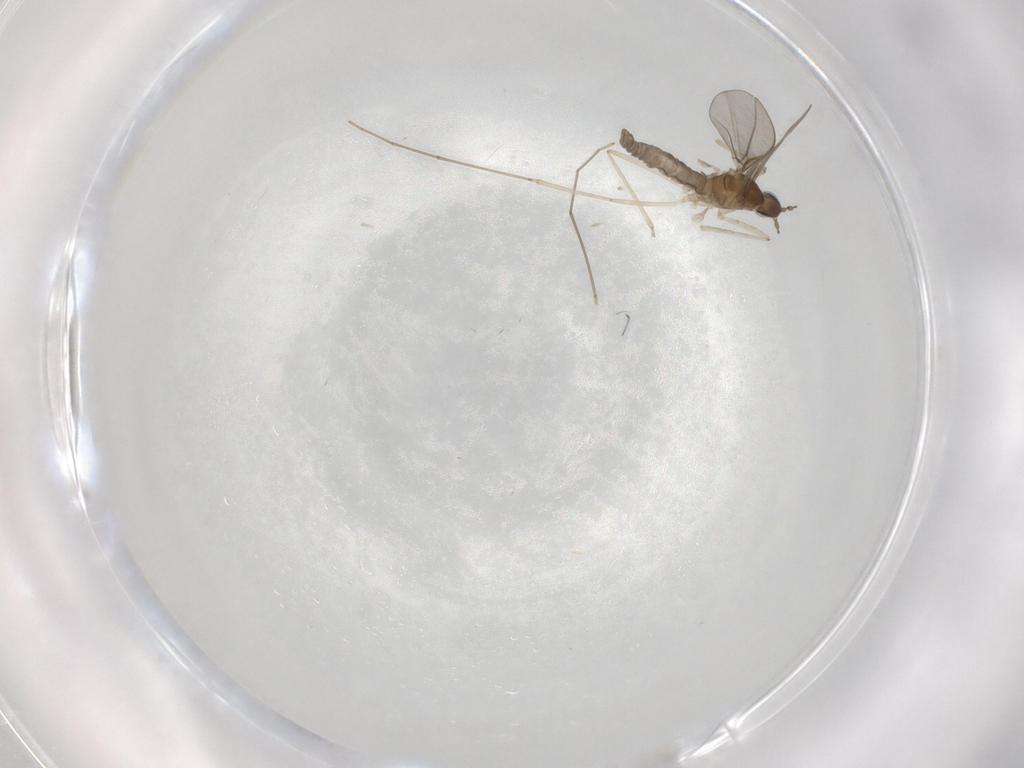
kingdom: Animalia
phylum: Arthropoda
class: Insecta
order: Diptera
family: Cecidomyiidae
